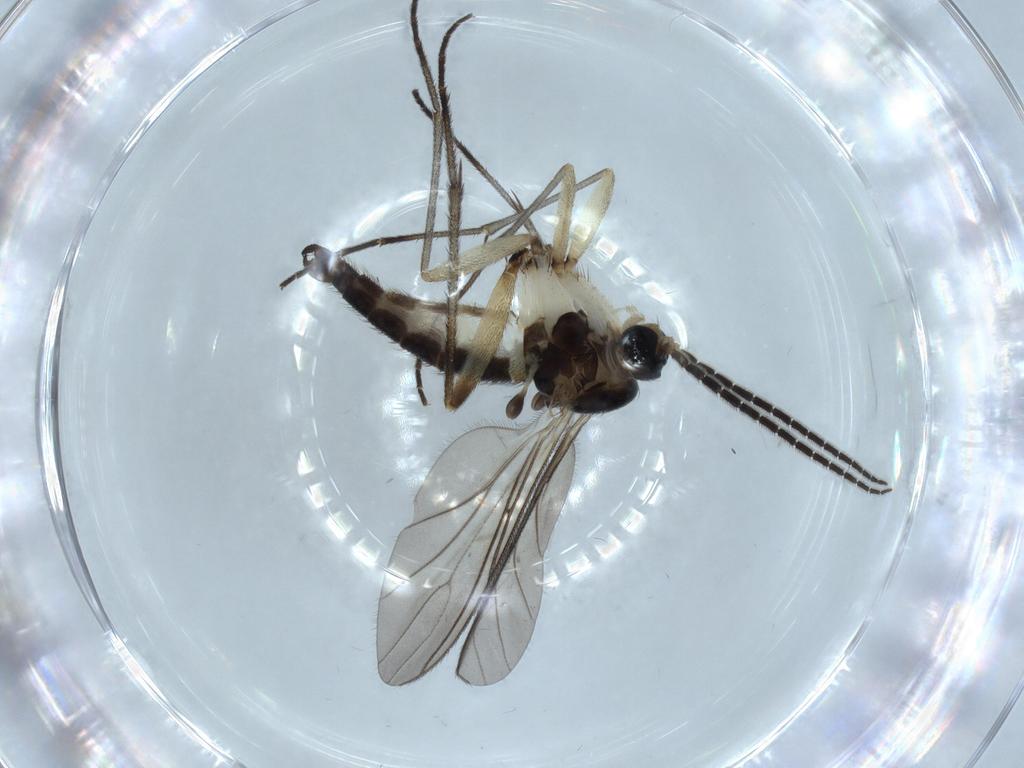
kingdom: Animalia
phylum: Arthropoda
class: Insecta
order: Diptera
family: Sciaridae
